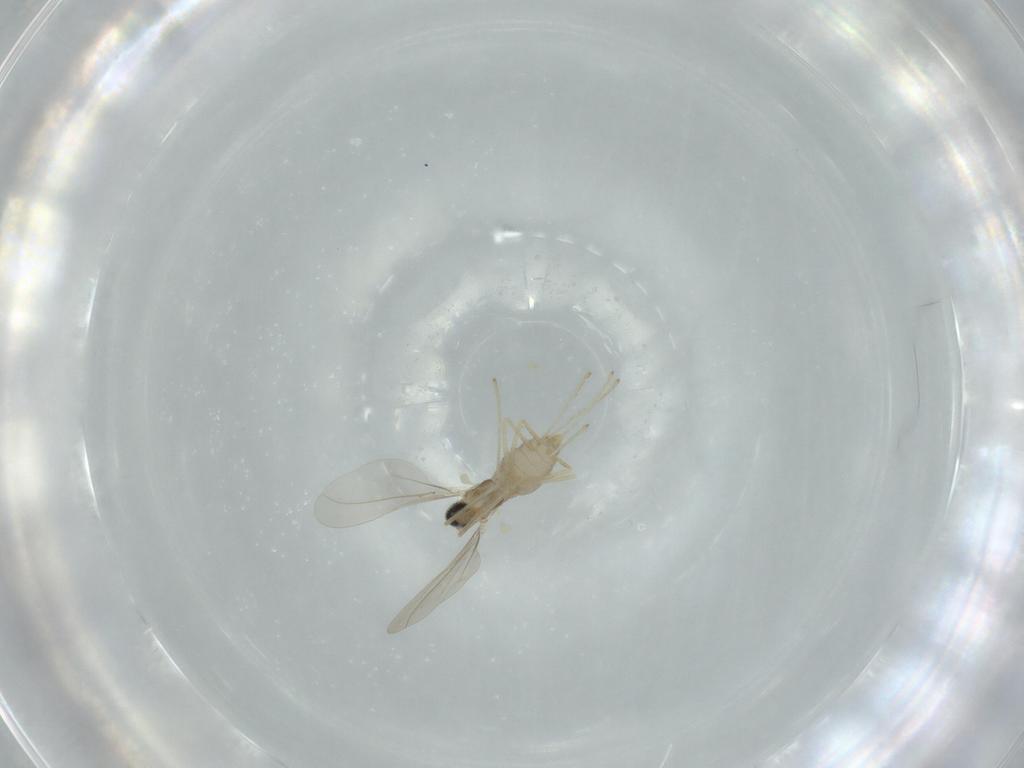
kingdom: Animalia
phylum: Arthropoda
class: Insecta
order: Diptera
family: Cecidomyiidae
